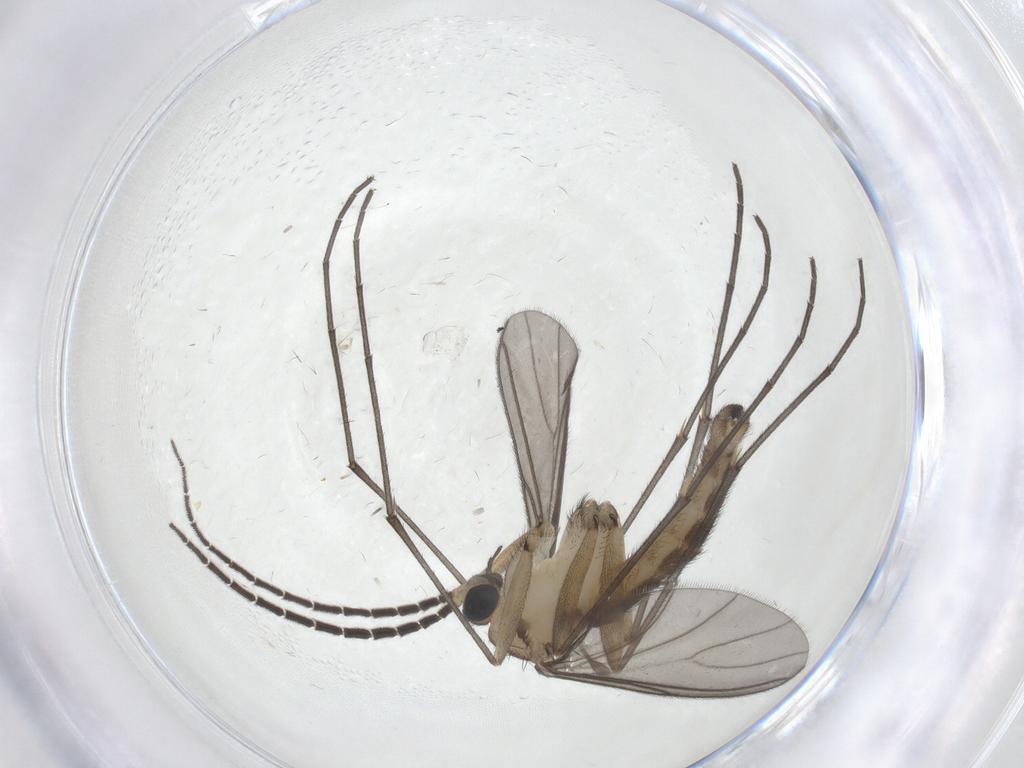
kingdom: Animalia
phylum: Arthropoda
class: Insecta
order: Diptera
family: Sciaridae
